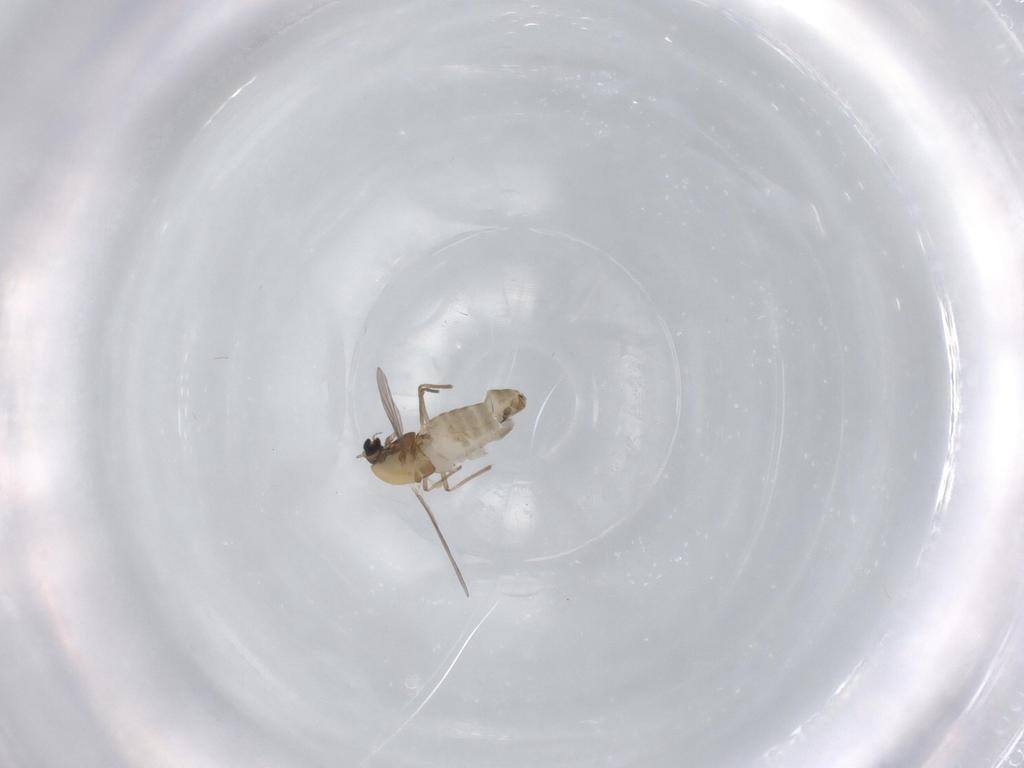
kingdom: Animalia
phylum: Arthropoda
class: Insecta
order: Diptera
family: Chironomidae
